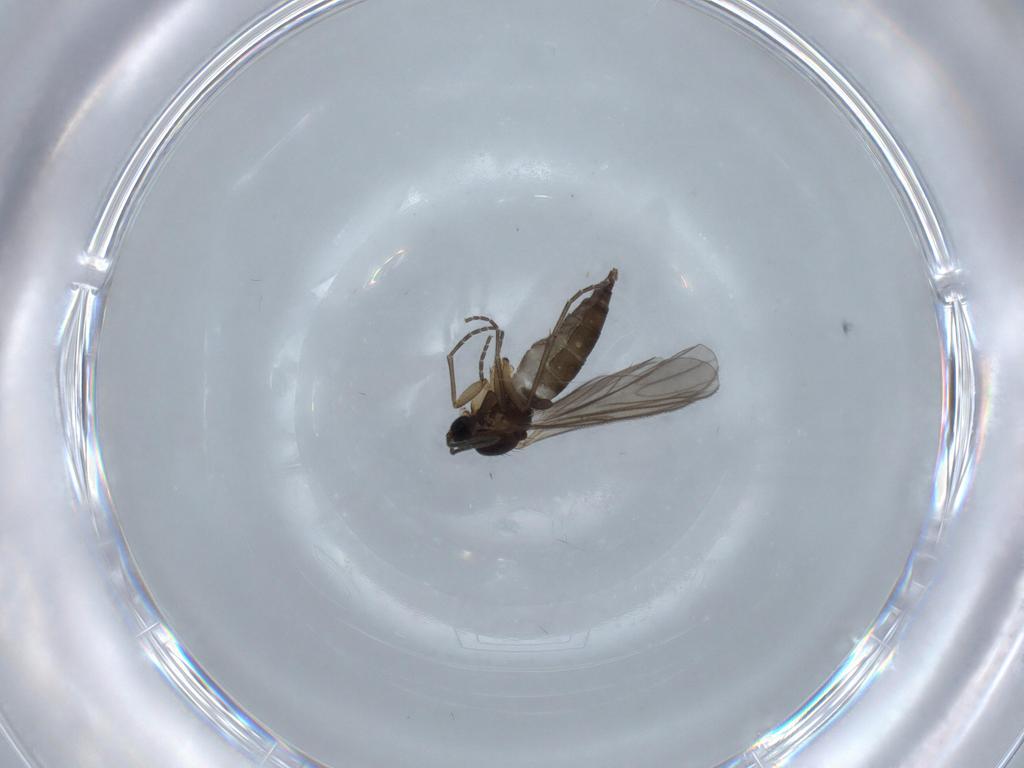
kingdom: Animalia
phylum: Arthropoda
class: Insecta
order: Diptera
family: Sciaridae
